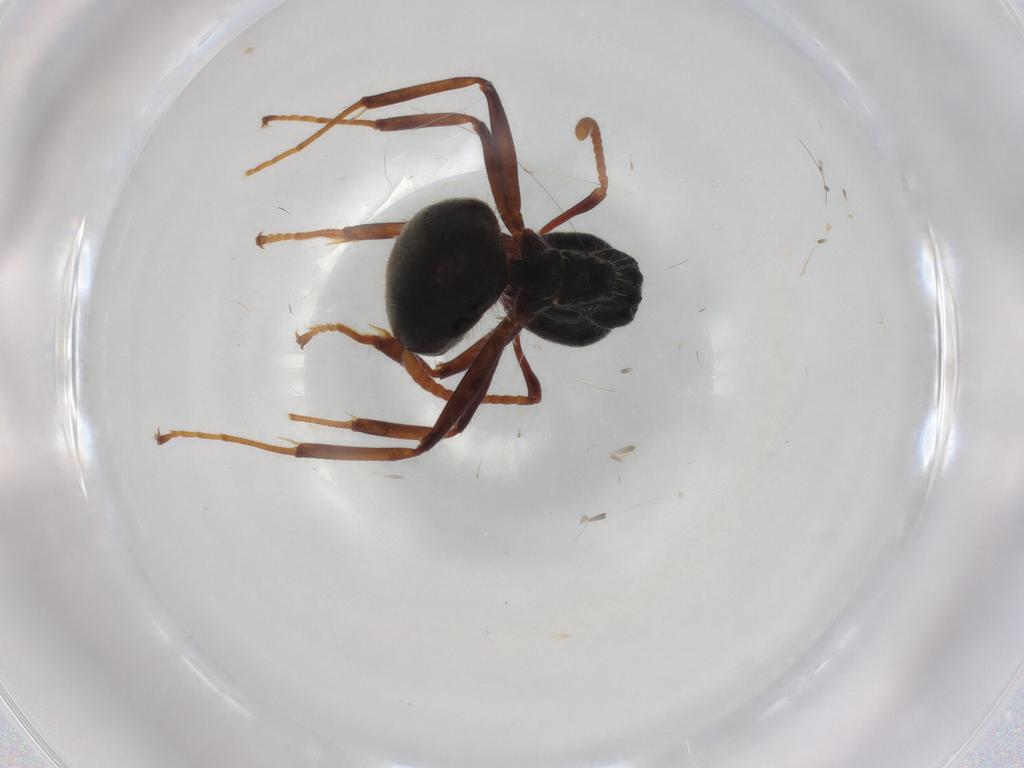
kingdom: Animalia
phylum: Arthropoda
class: Insecta
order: Hymenoptera
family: Formicidae
